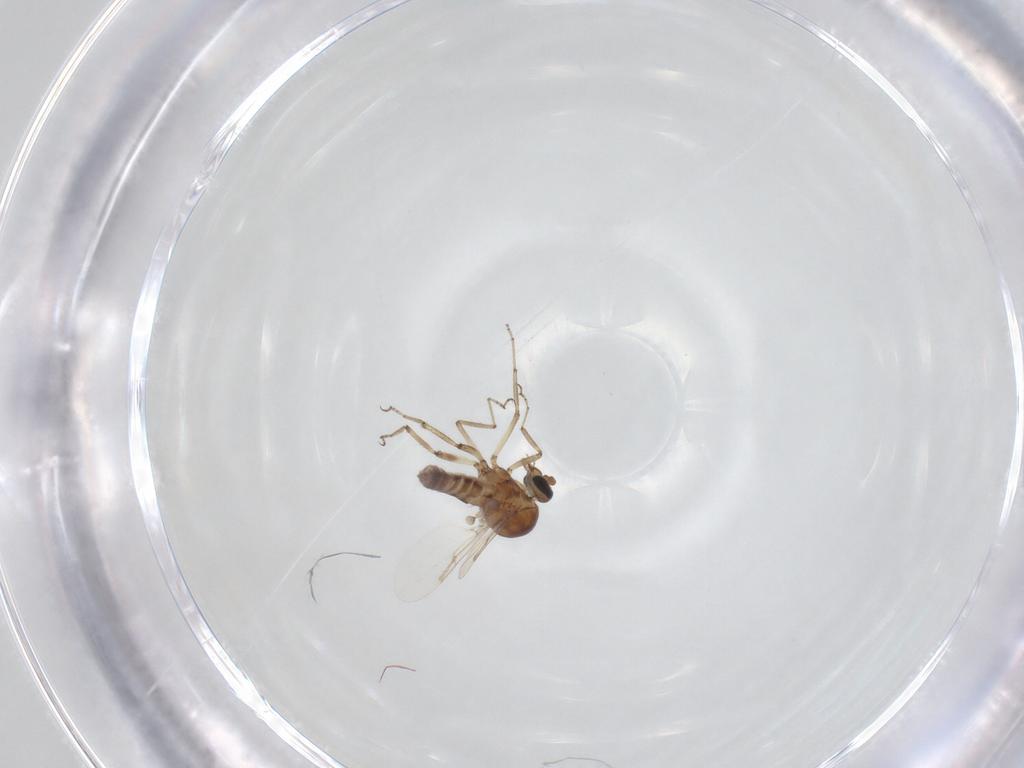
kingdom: Animalia
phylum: Arthropoda
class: Insecta
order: Diptera
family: Ceratopogonidae
